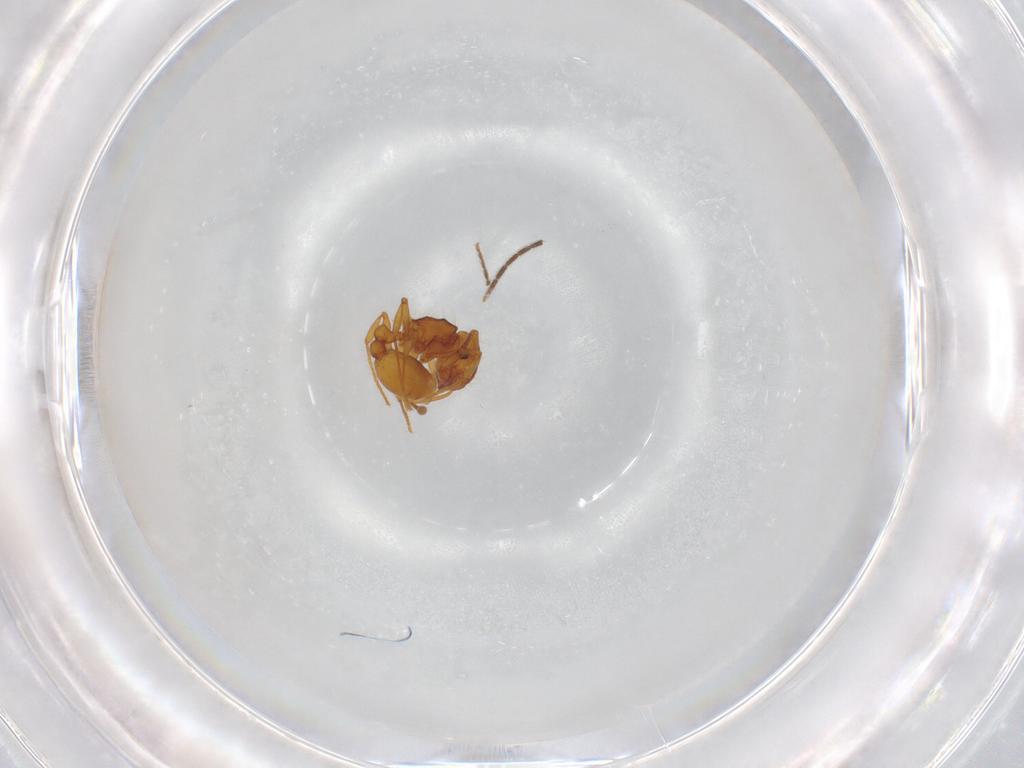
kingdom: Animalia
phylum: Arthropoda
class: Insecta
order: Hymenoptera
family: Formicidae
